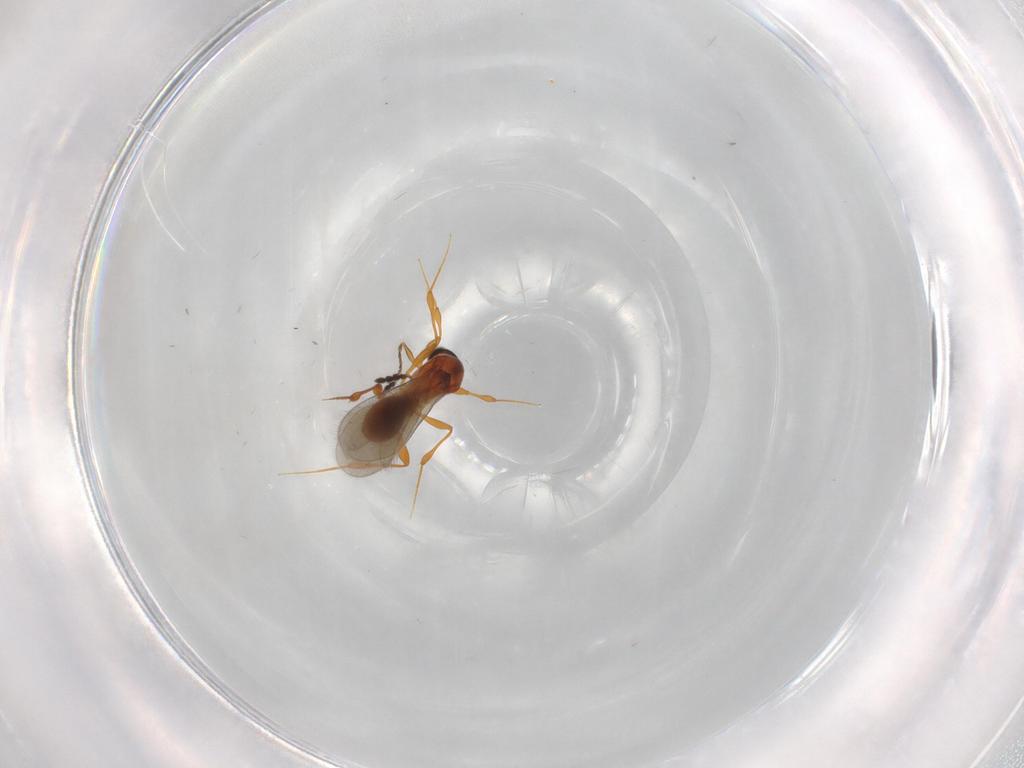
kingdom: Animalia
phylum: Arthropoda
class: Insecta
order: Hymenoptera
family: Platygastridae
